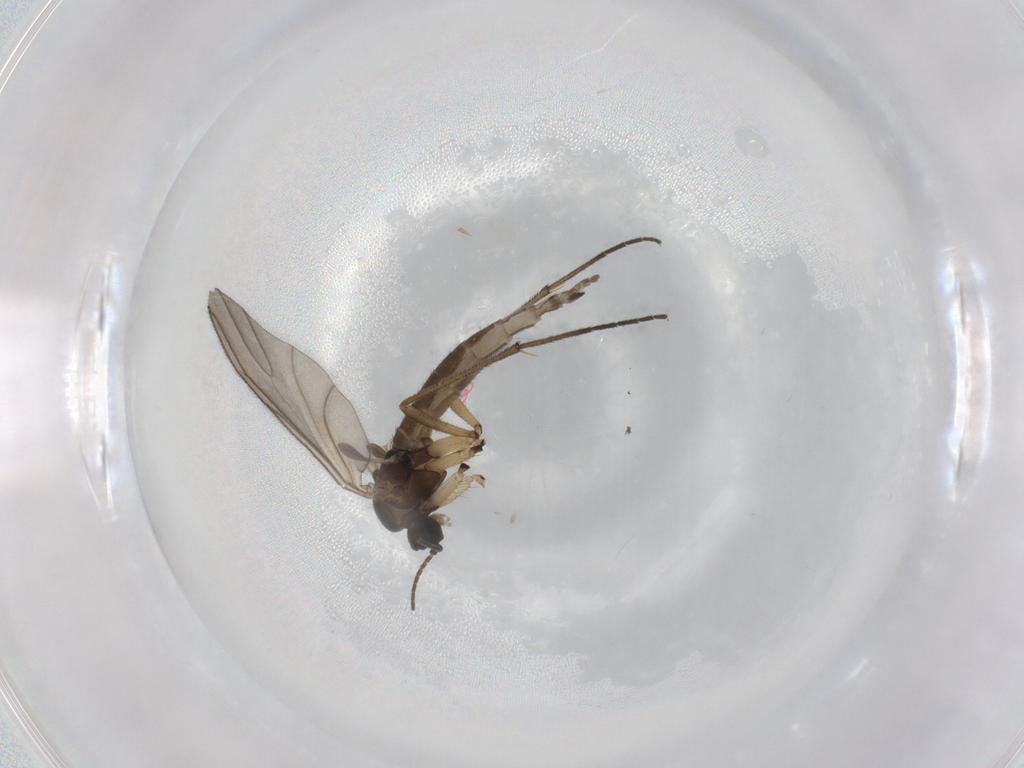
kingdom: Animalia
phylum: Arthropoda
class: Insecta
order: Diptera
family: Sciaridae
